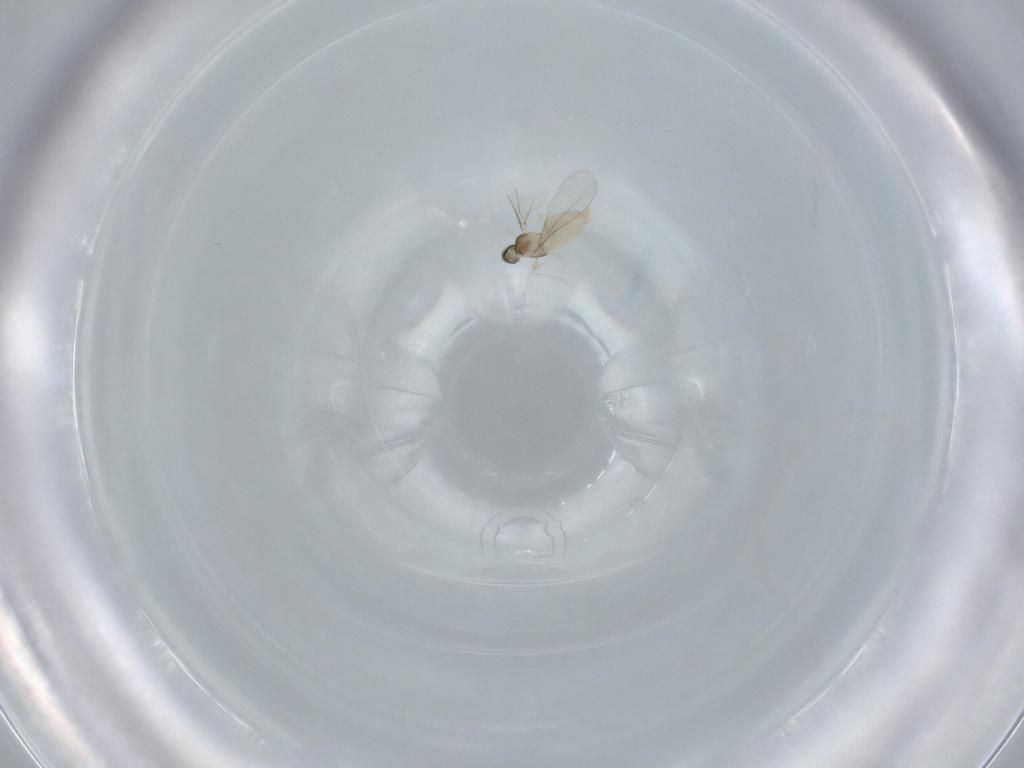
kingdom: Animalia
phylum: Arthropoda
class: Insecta
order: Diptera
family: Cecidomyiidae
